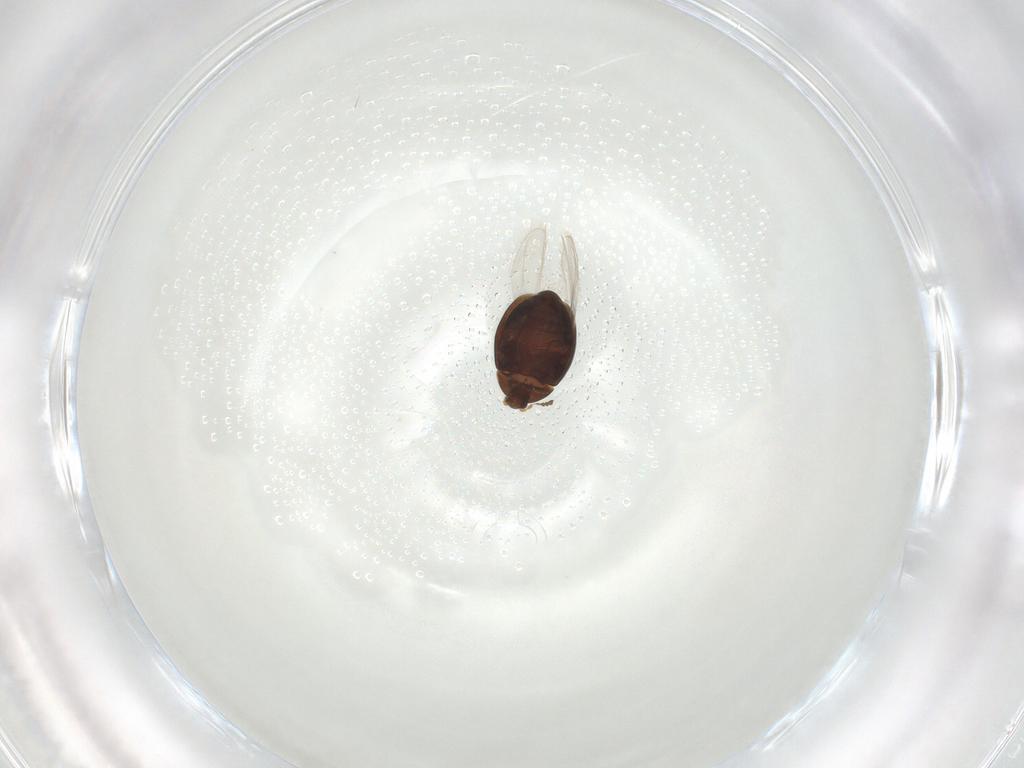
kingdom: Animalia
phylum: Arthropoda
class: Insecta
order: Coleoptera
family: Corylophidae
